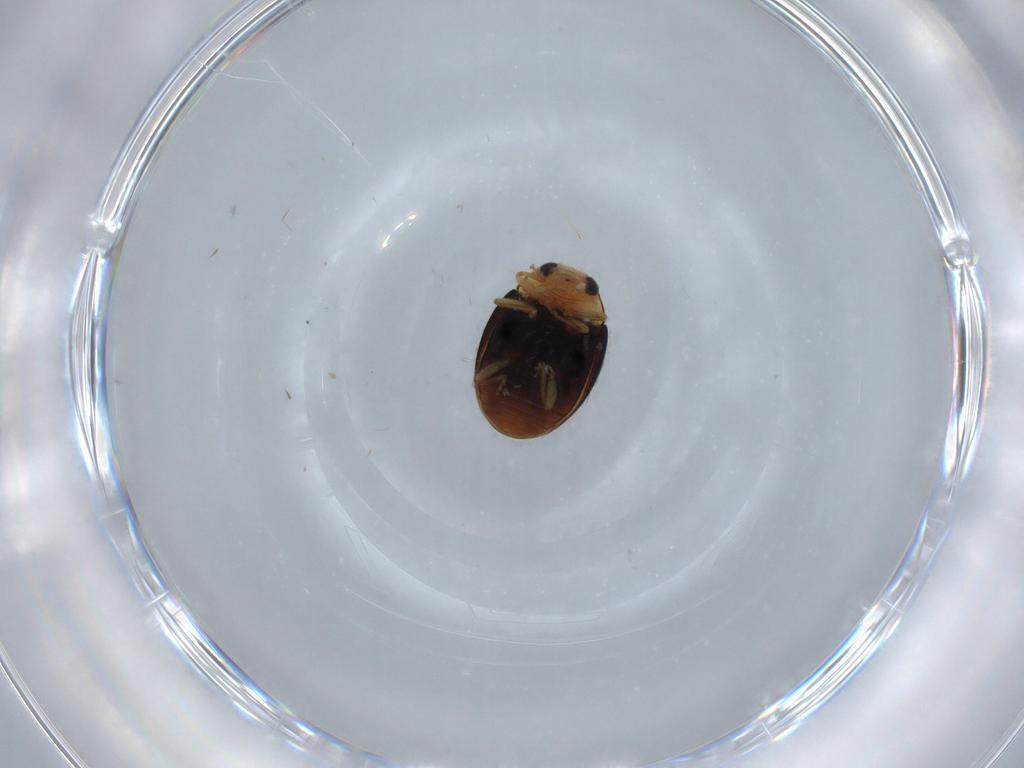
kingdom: Animalia
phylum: Arthropoda
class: Insecta
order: Coleoptera
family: Coccinellidae
